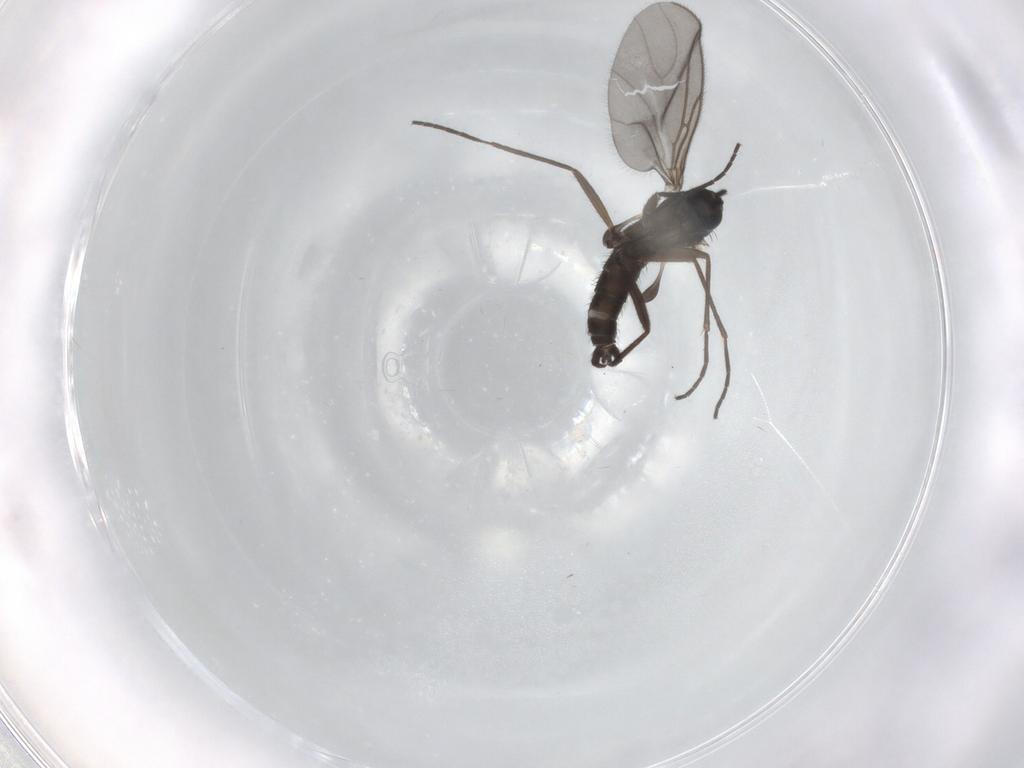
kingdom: Animalia
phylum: Arthropoda
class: Insecta
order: Diptera
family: Sciaridae
